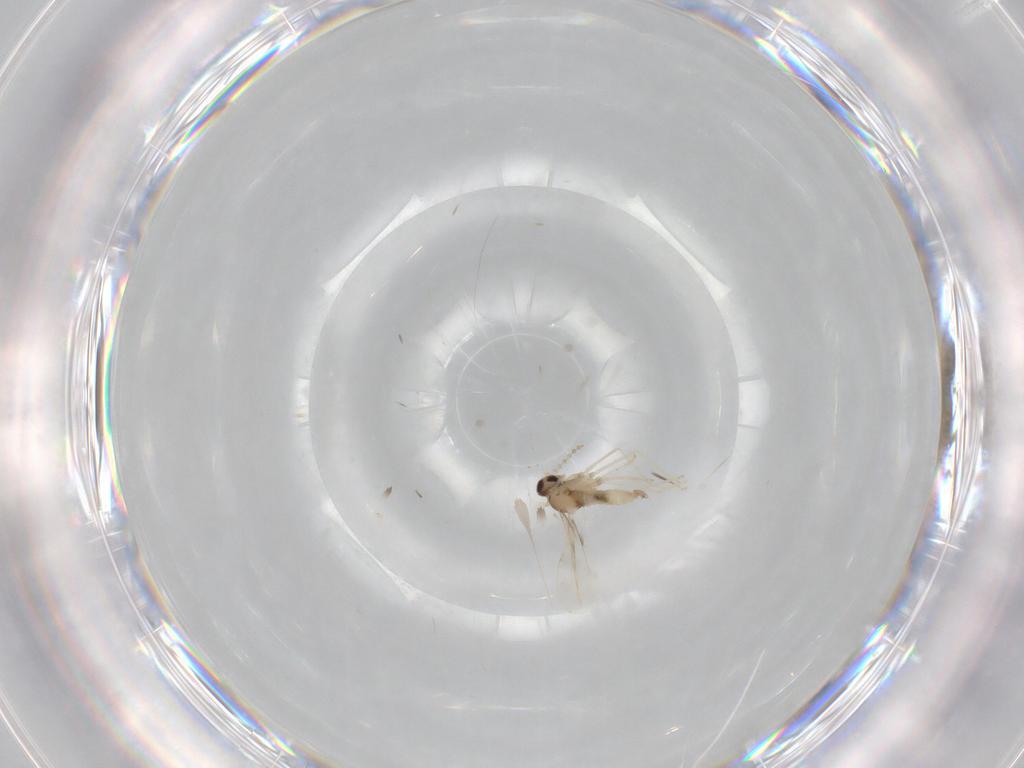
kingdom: Animalia
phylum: Arthropoda
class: Insecta
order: Diptera
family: Cecidomyiidae
